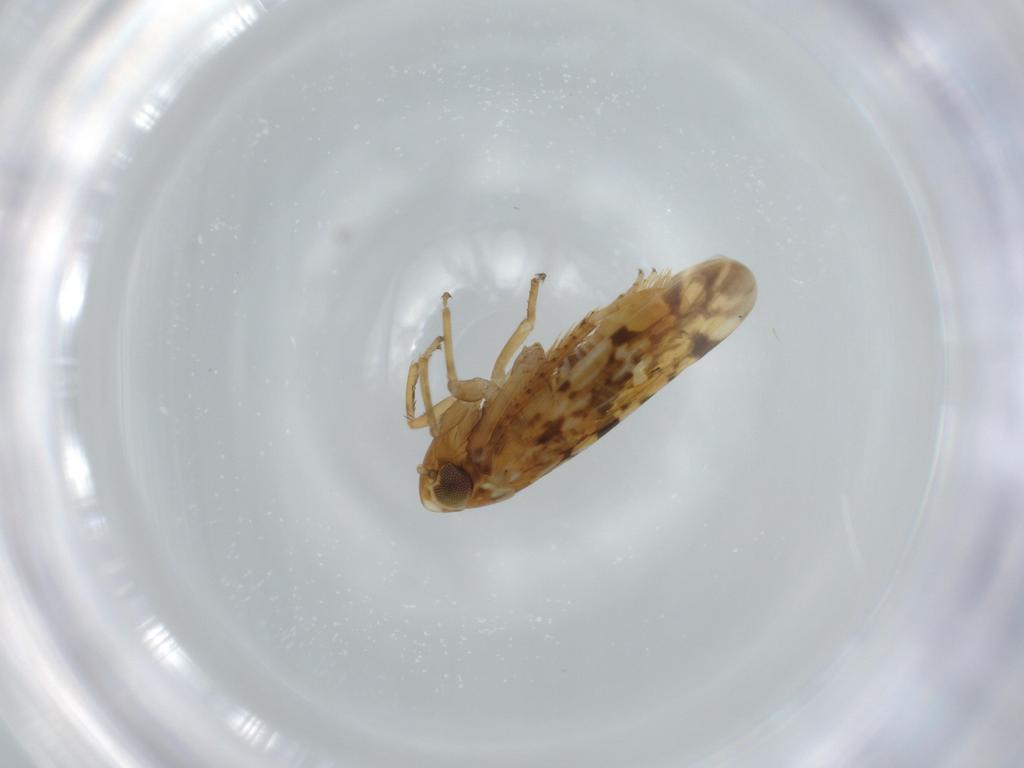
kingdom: Animalia
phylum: Arthropoda
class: Insecta
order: Hemiptera
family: Cicadellidae
